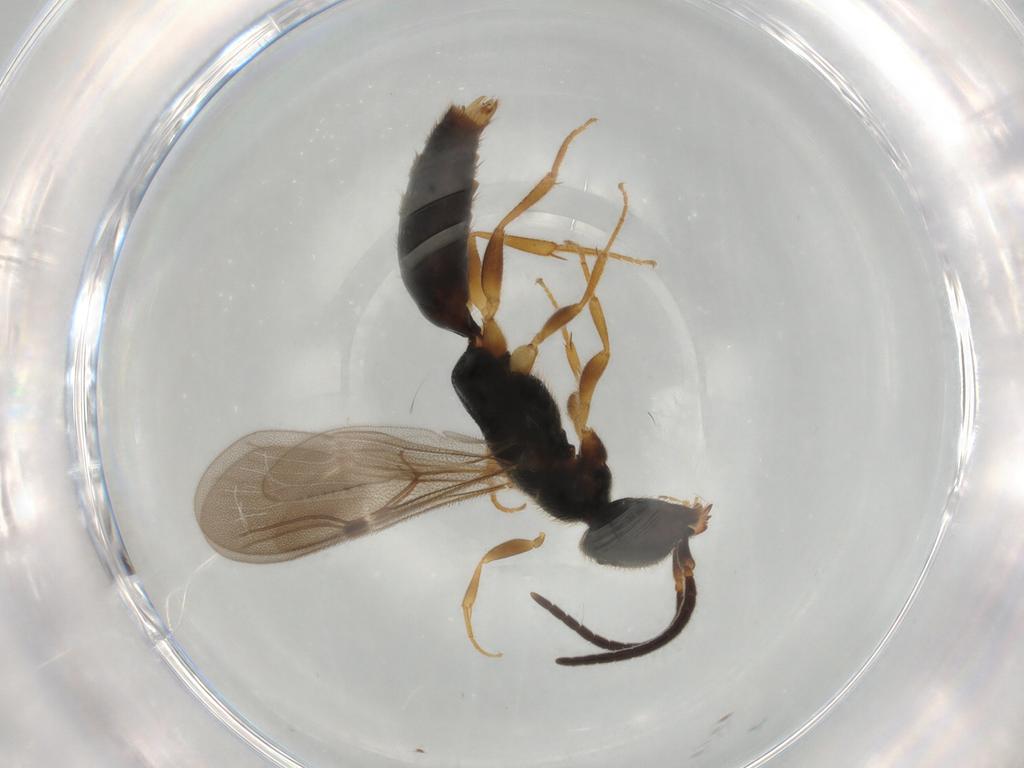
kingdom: Animalia
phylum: Arthropoda
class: Insecta
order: Hymenoptera
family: Bethylidae
